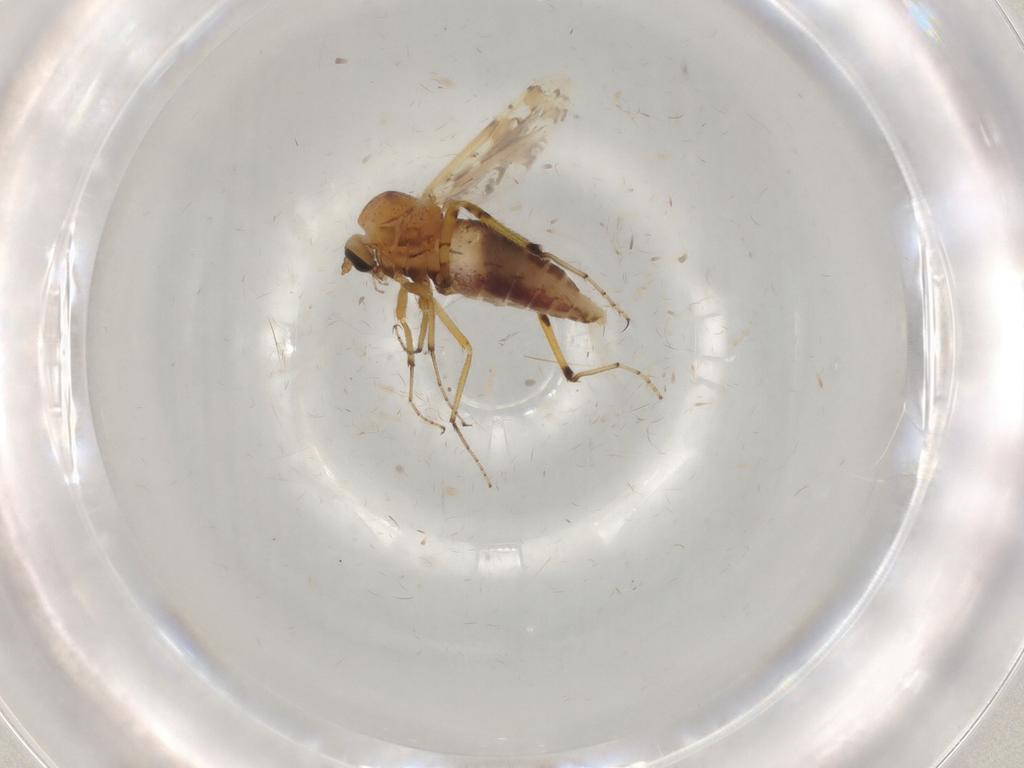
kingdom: Animalia
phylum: Arthropoda
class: Insecta
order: Diptera
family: Ceratopogonidae
